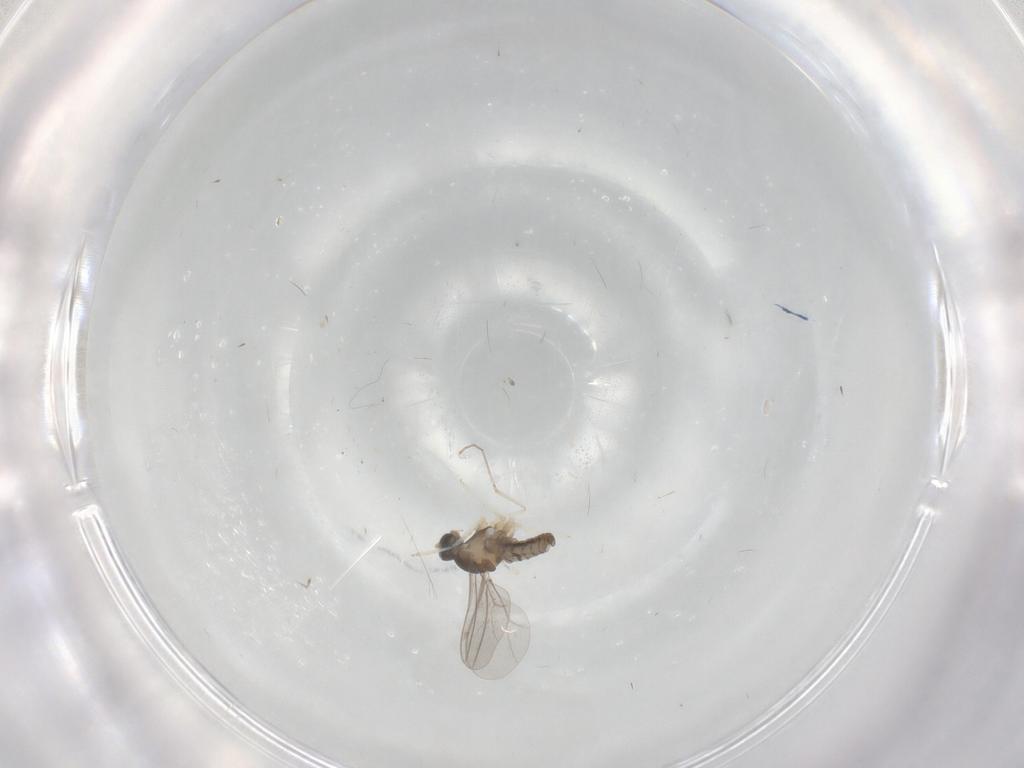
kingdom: Animalia
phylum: Arthropoda
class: Insecta
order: Diptera
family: Cecidomyiidae
